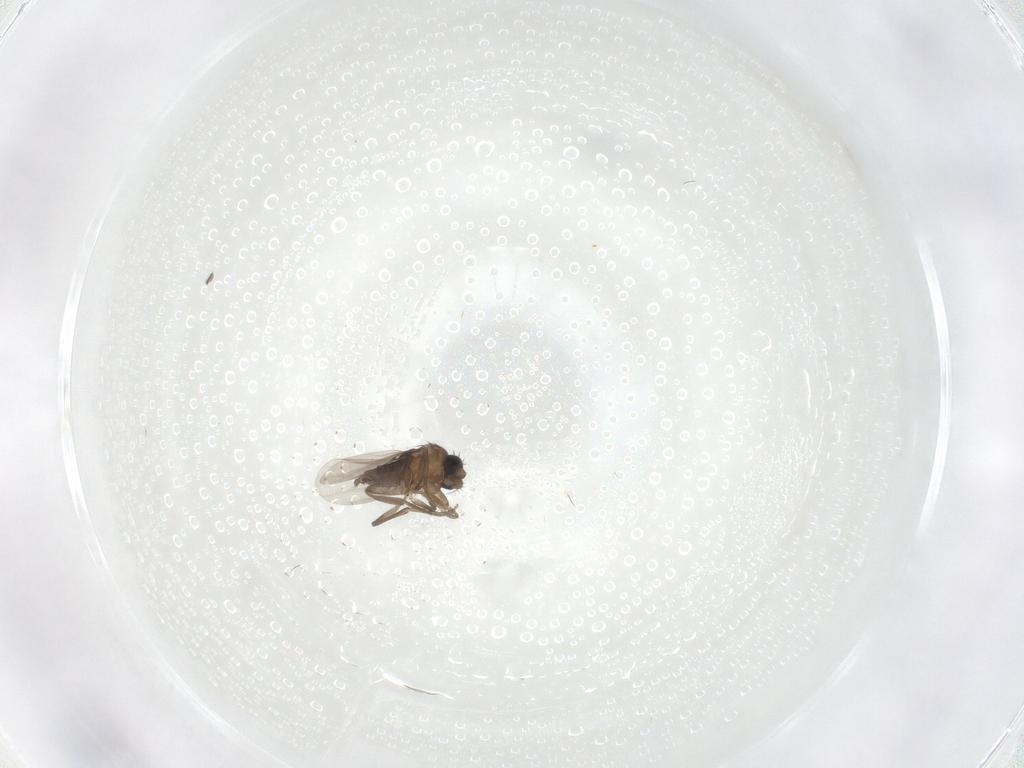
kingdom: Animalia
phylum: Arthropoda
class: Insecta
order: Diptera
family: Phoridae
